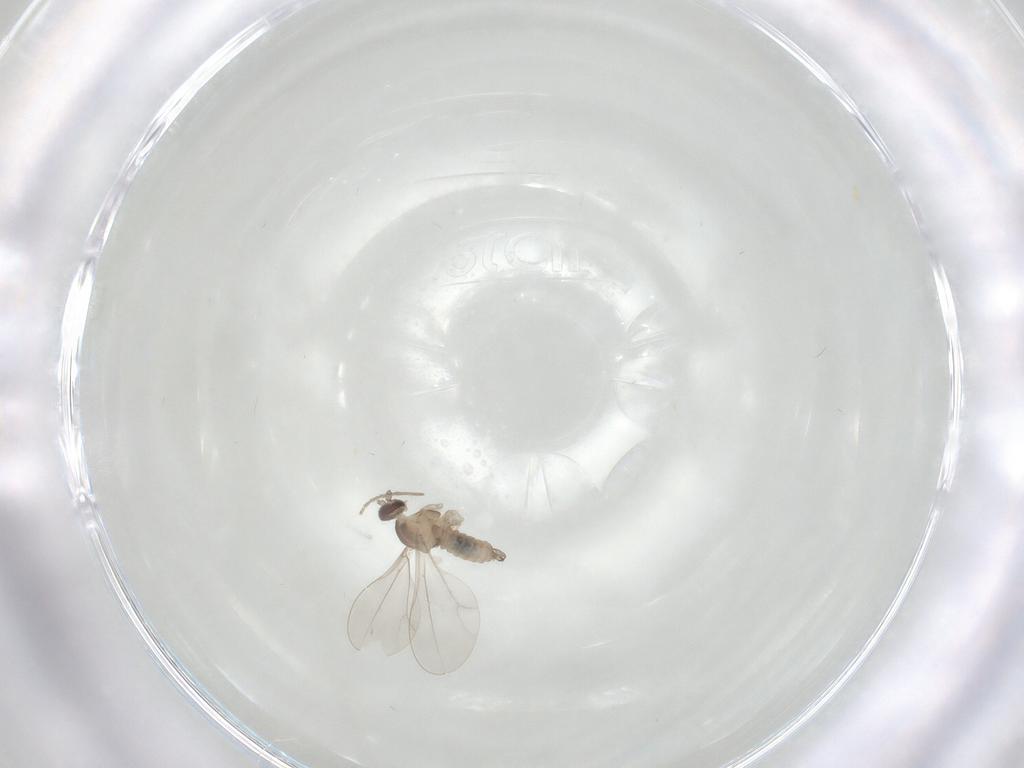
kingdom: Animalia
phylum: Arthropoda
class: Insecta
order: Diptera
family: Cecidomyiidae
